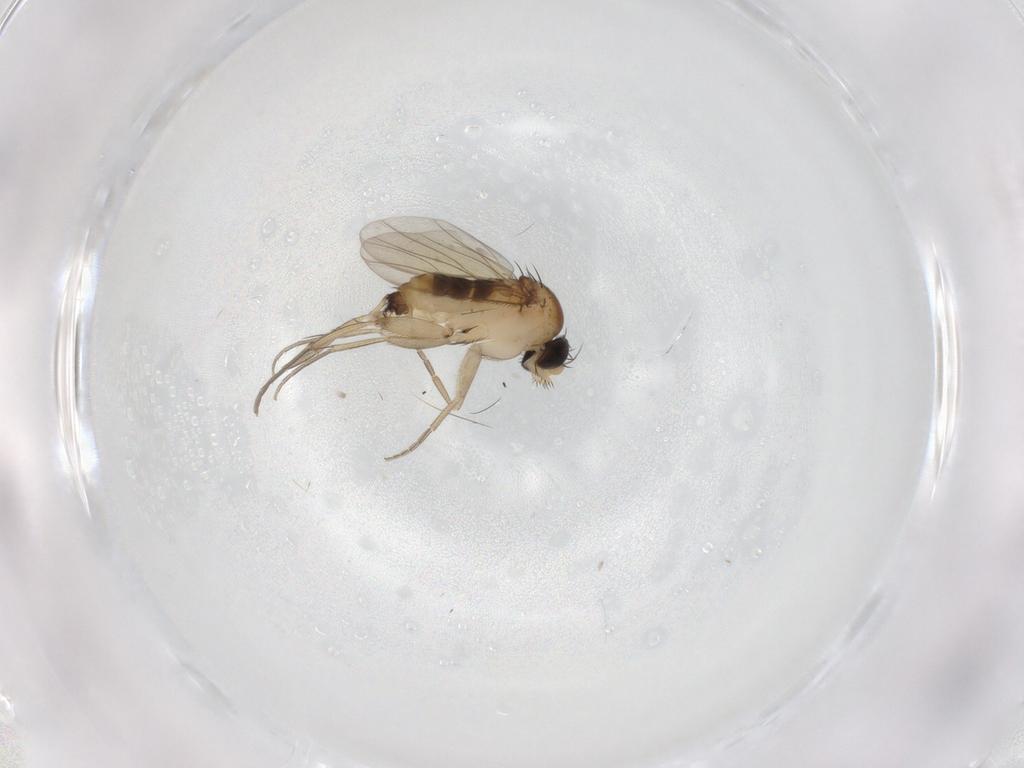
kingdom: Animalia
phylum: Arthropoda
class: Insecta
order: Diptera
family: Phoridae
